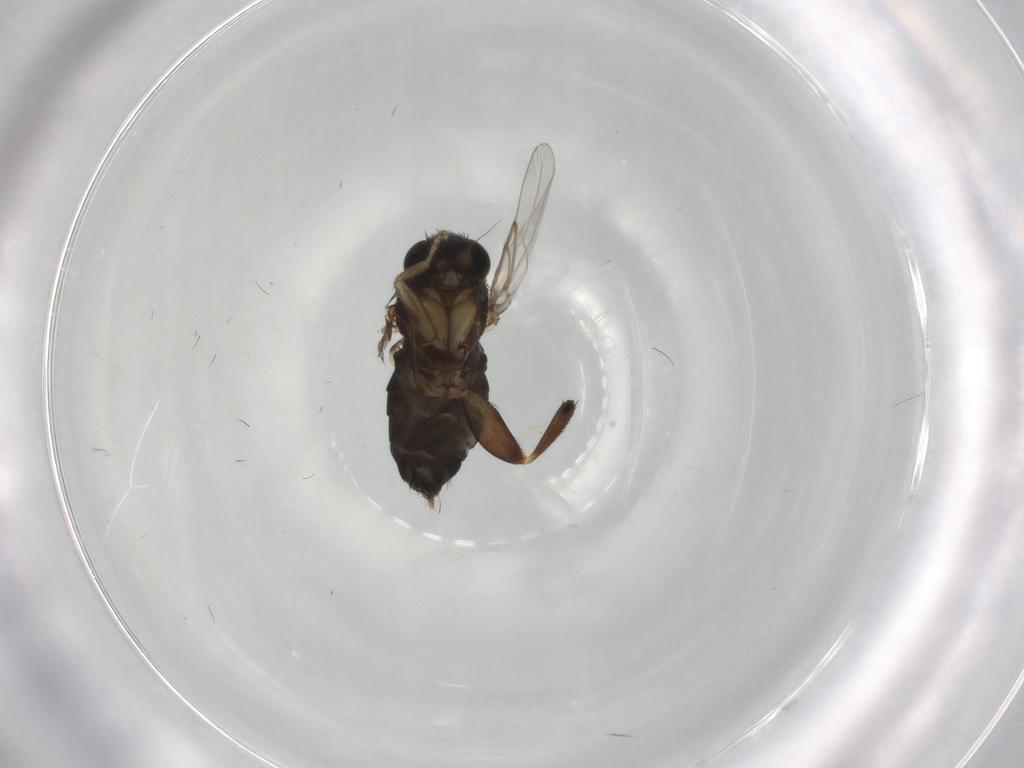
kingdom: Animalia
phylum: Arthropoda
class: Insecta
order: Diptera
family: Phoridae
